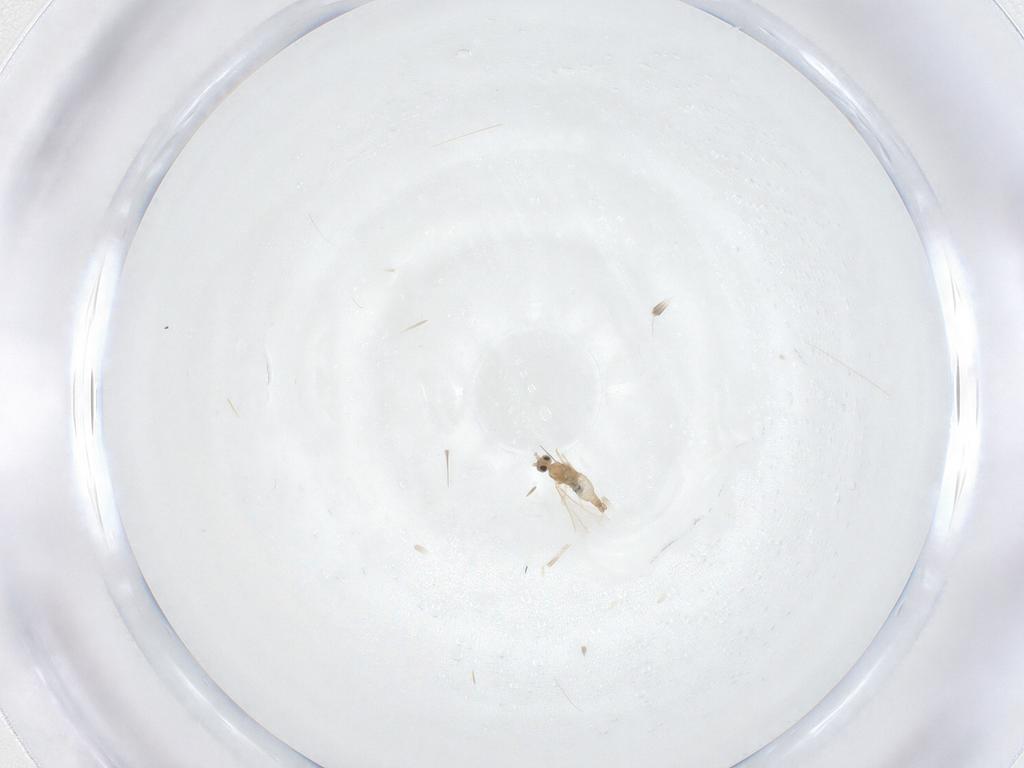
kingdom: Animalia
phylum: Arthropoda
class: Insecta
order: Diptera
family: Cecidomyiidae
